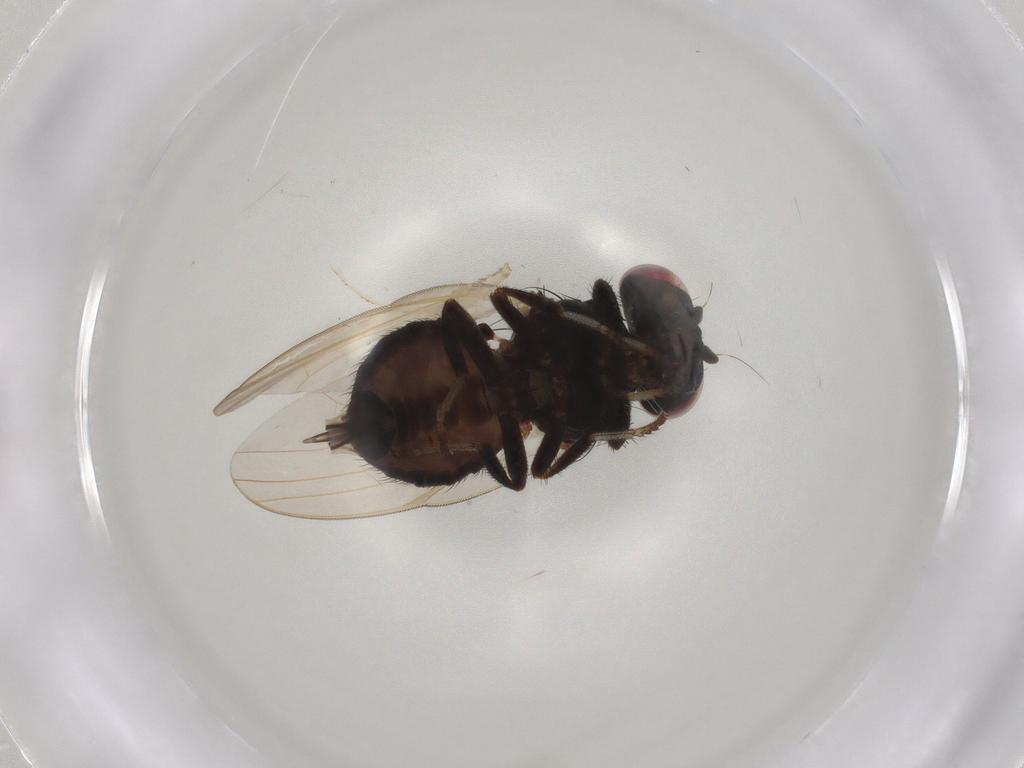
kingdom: Animalia
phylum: Arthropoda
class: Insecta
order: Diptera
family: Lonchaeidae
